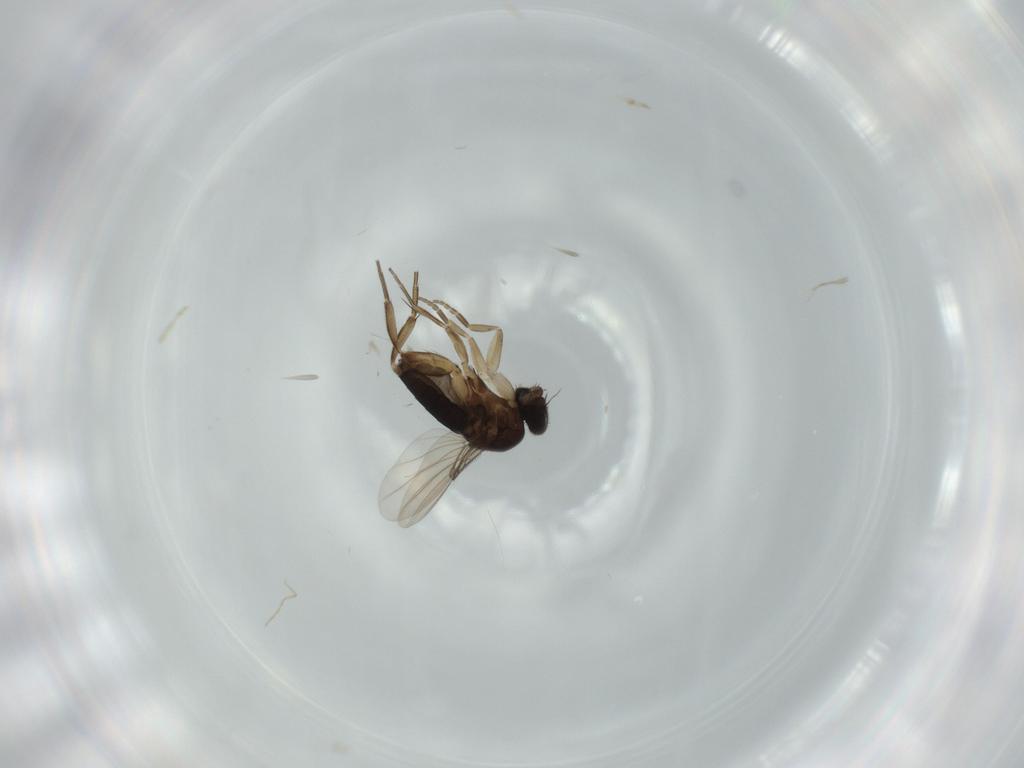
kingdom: Animalia
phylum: Arthropoda
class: Insecta
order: Diptera
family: Phoridae
